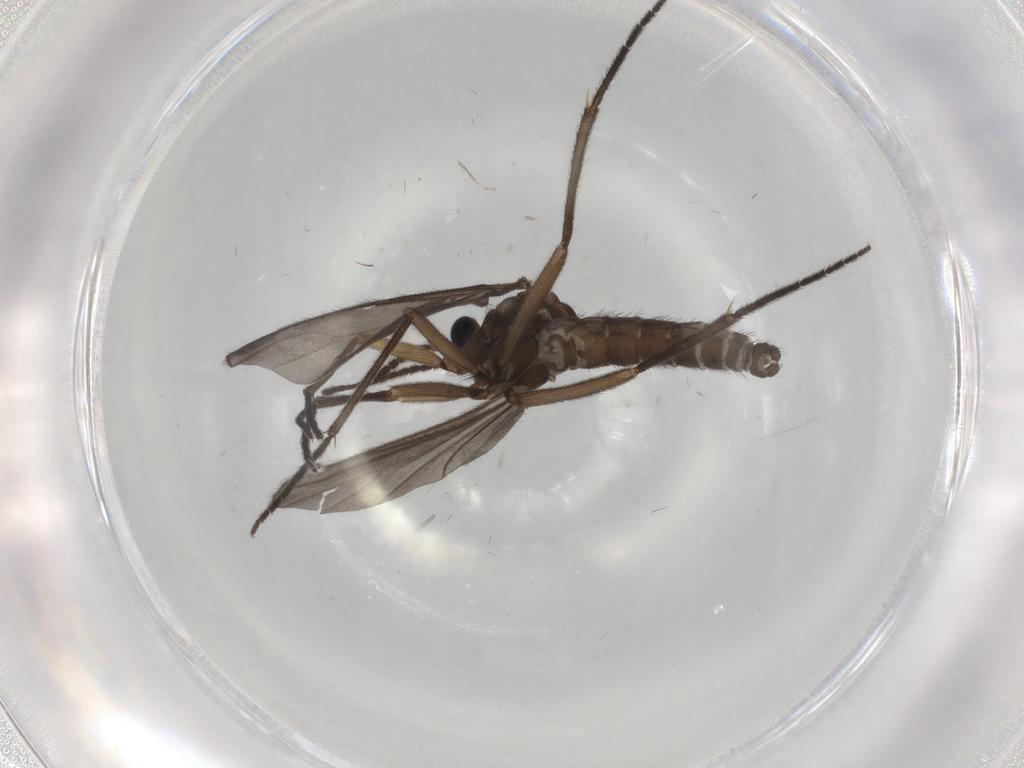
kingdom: Animalia
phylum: Arthropoda
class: Insecta
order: Diptera
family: Sciaridae
